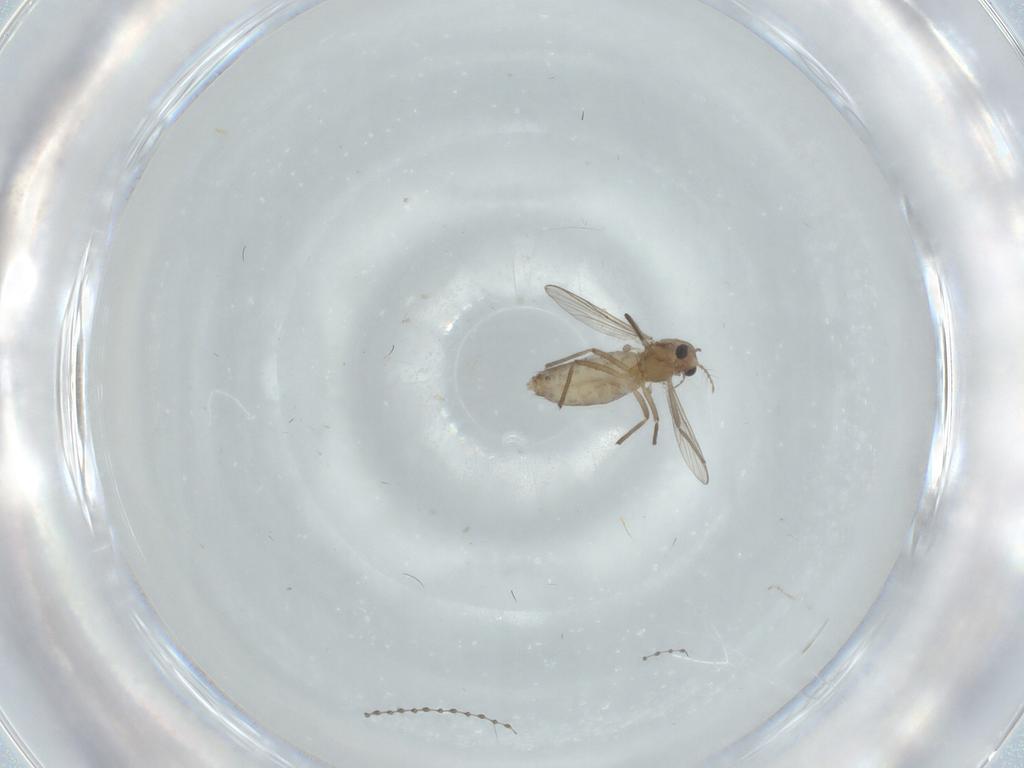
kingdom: Animalia
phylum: Arthropoda
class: Insecta
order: Diptera
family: Chironomidae
